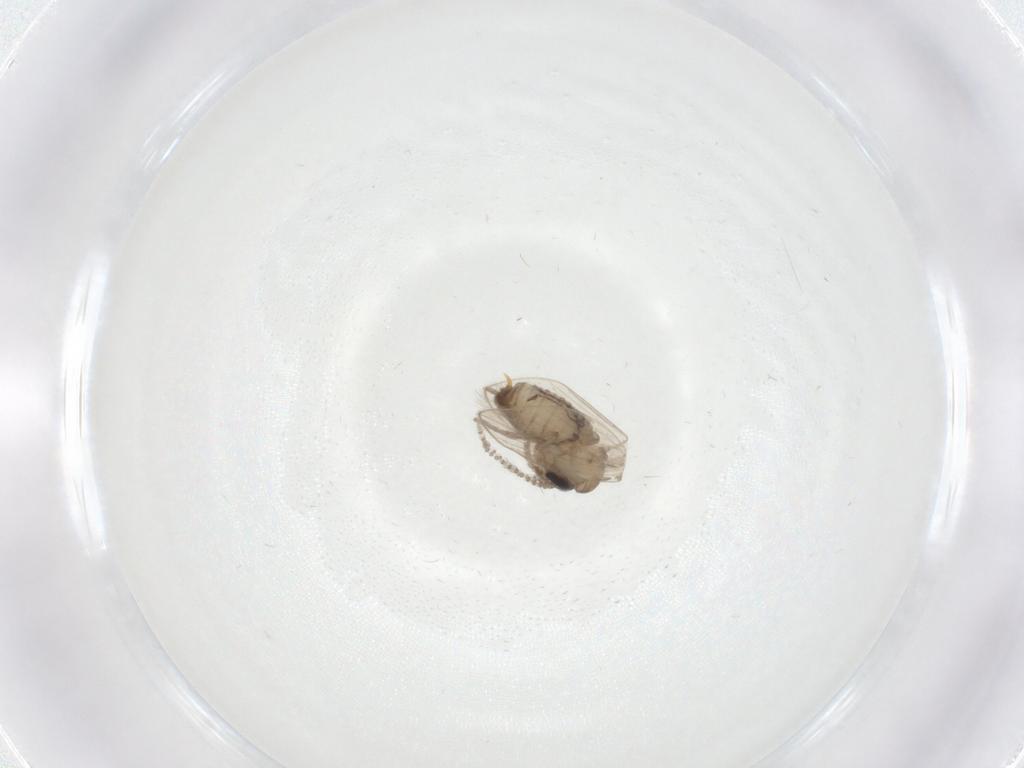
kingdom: Animalia
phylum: Arthropoda
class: Insecta
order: Diptera
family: Psychodidae
